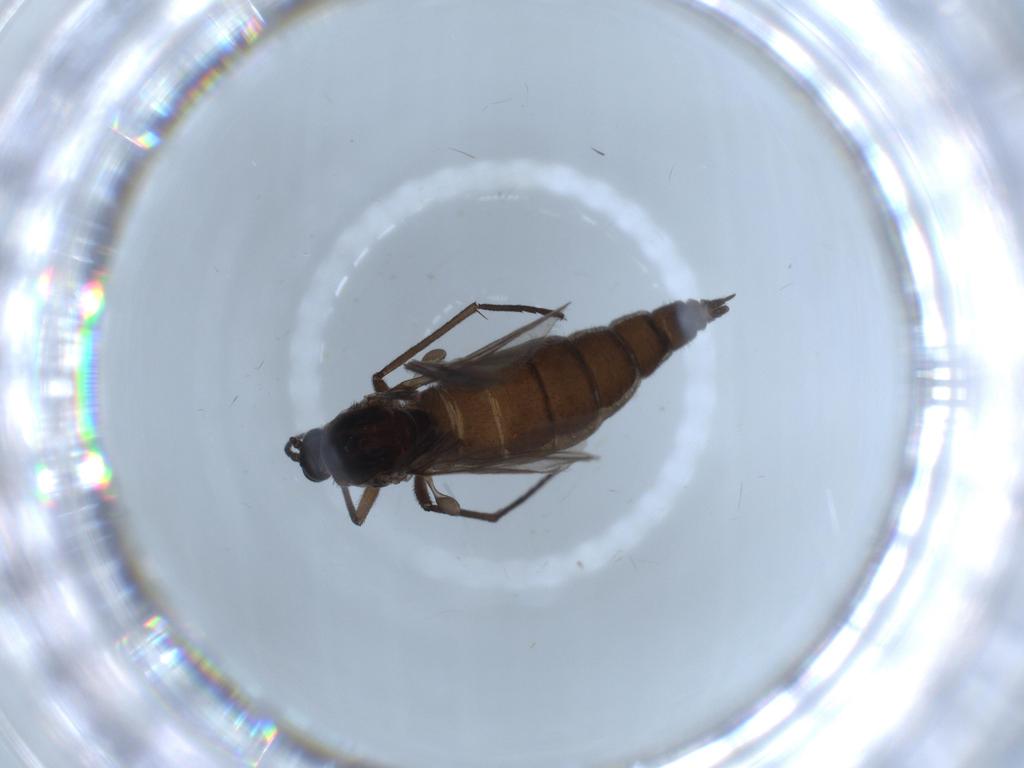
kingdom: Animalia
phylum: Arthropoda
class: Insecta
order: Diptera
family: Sciaridae
